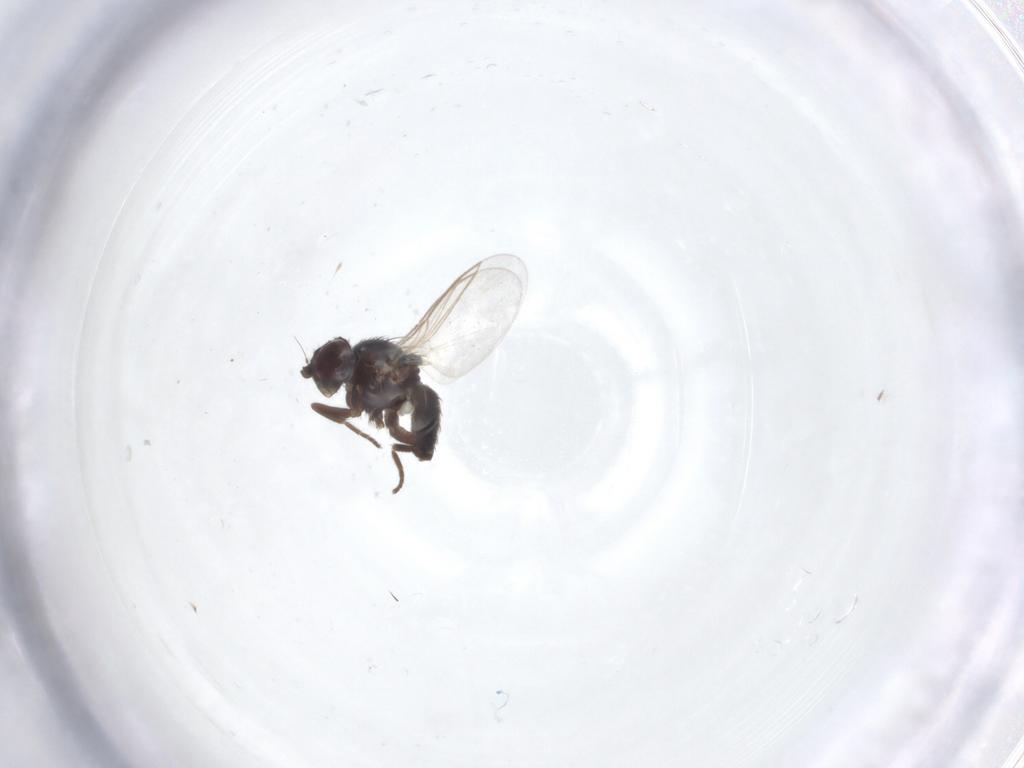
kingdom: Animalia
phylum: Arthropoda
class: Insecta
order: Diptera
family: Agromyzidae
